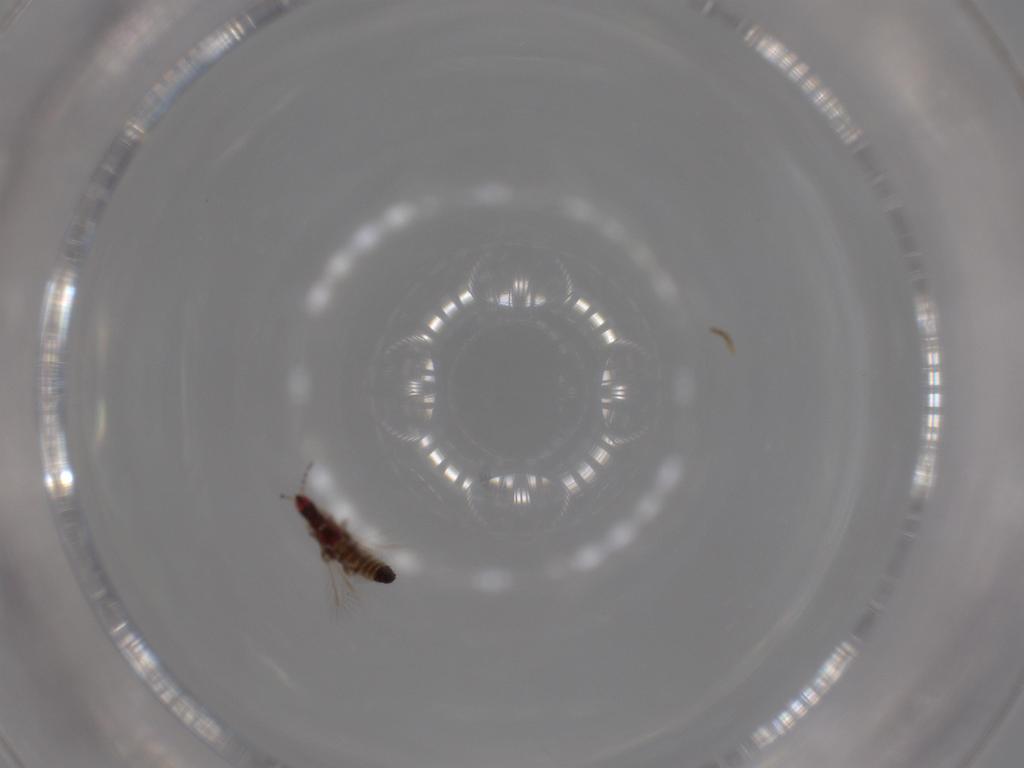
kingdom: Animalia
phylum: Arthropoda
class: Insecta
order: Thysanoptera
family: Phlaeothripidae
